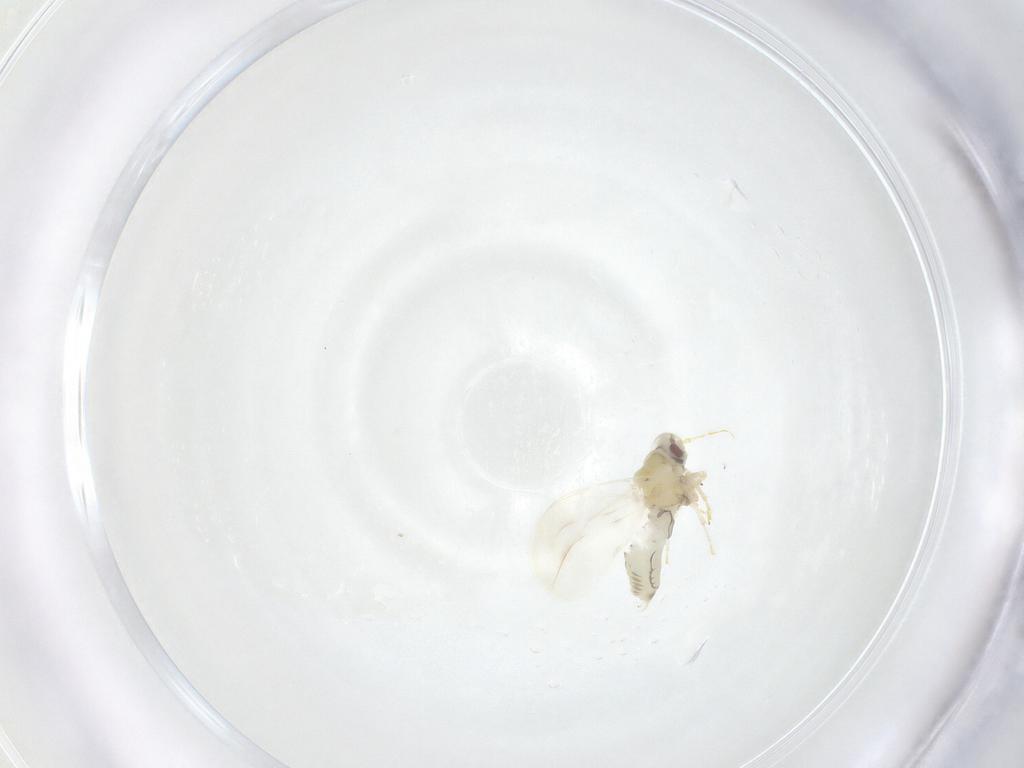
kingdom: Animalia
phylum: Arthropoda
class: Insecta
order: Hemiptera
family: Aleyrodidae
